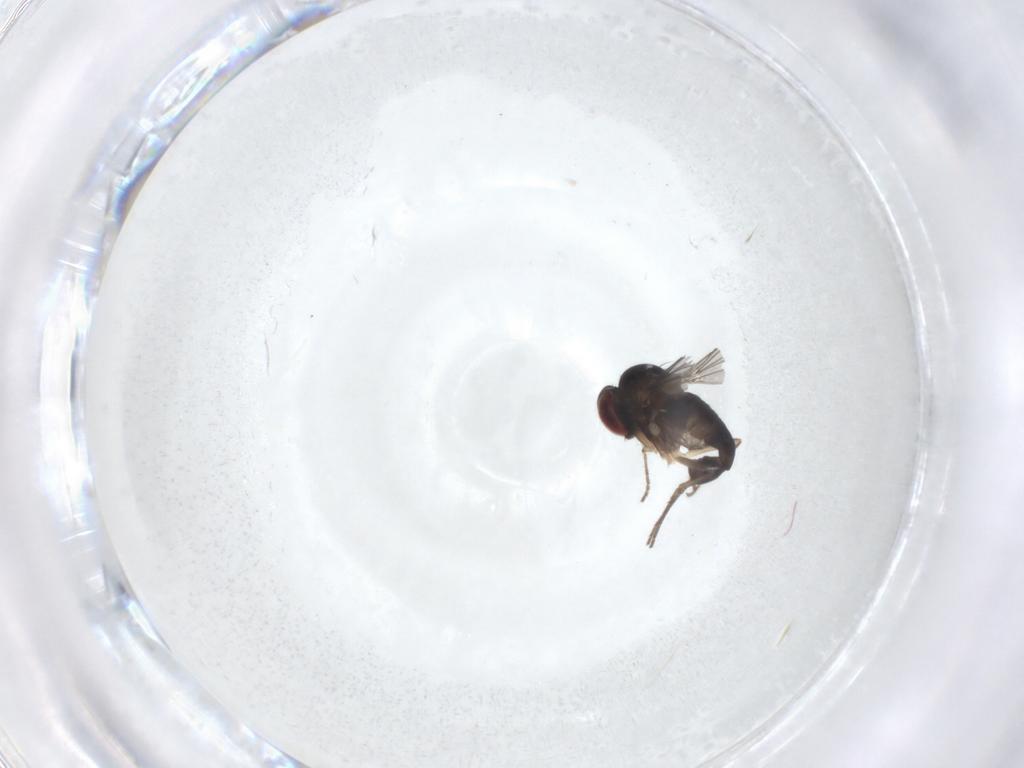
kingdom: Animalia
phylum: Arthropoda
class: Insecta
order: Diptera
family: Dolichopodidae
